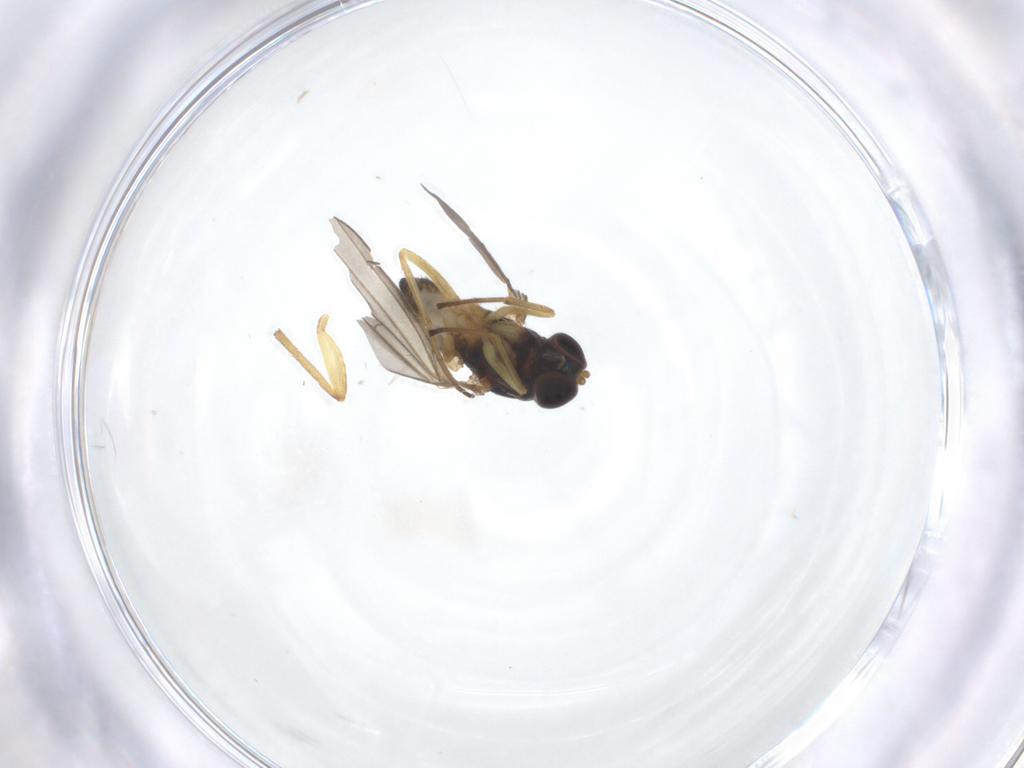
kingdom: Animalia
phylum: Arthropoda
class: Insecta
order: Diptera
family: Dolichopodidae
